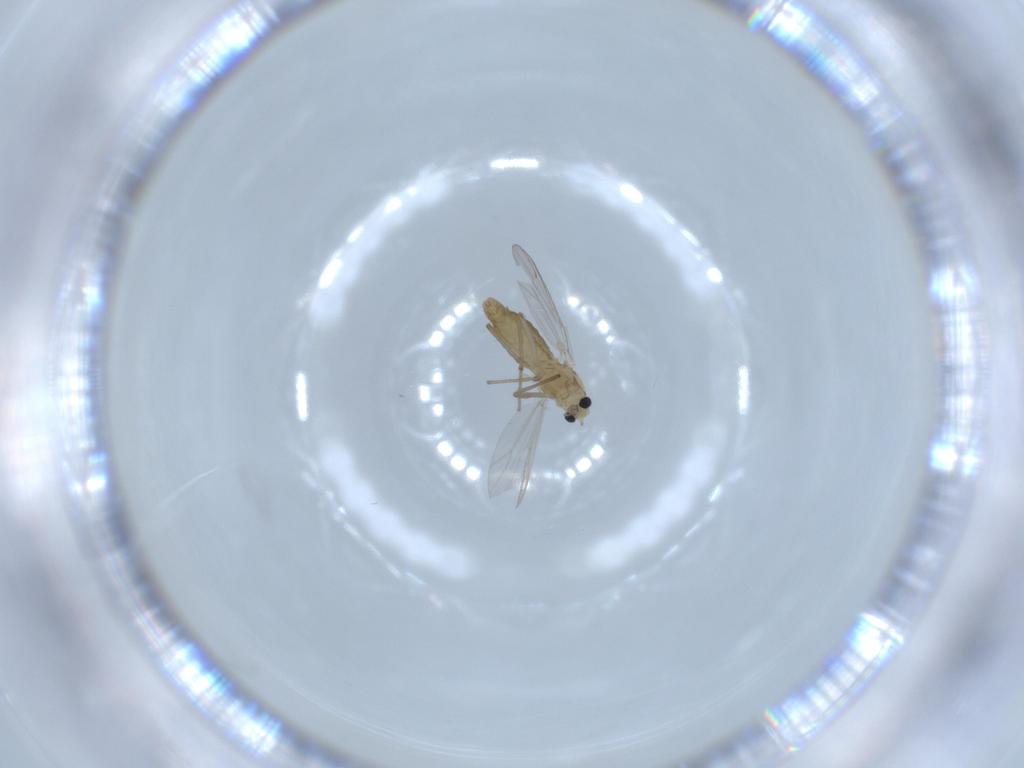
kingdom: Animalia
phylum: Arthropoda
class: Insecta
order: Diptera
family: Chironomidae
